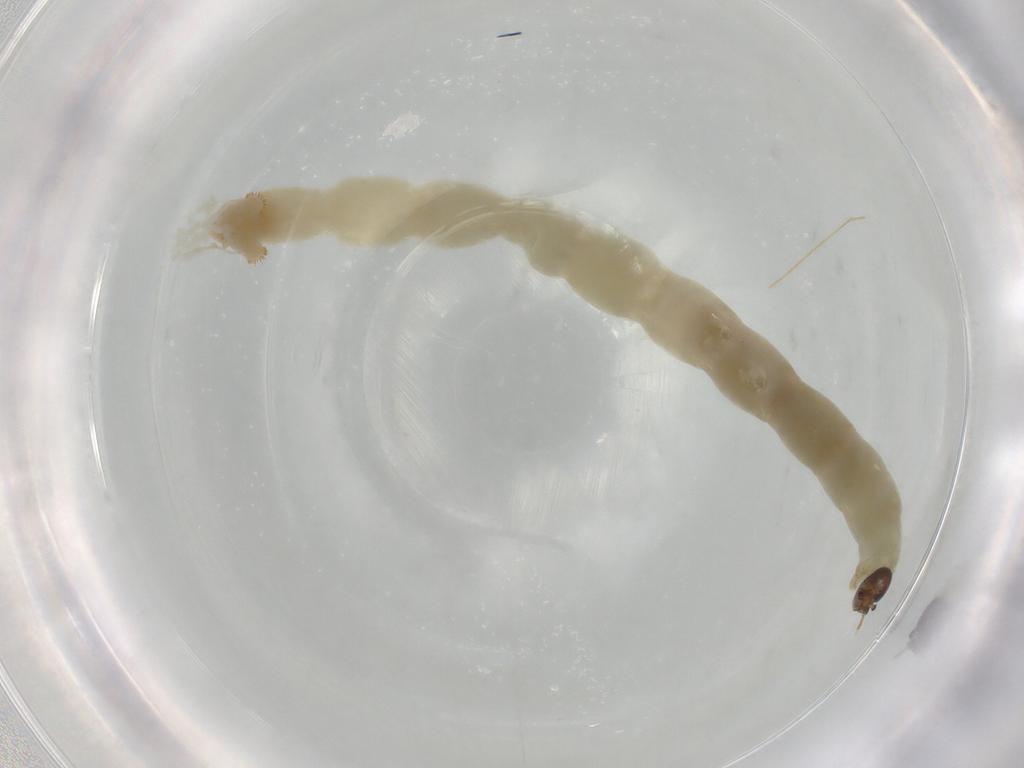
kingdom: Animalia
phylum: Arthropoda
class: Insecta
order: Diptera
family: Chironomidae
